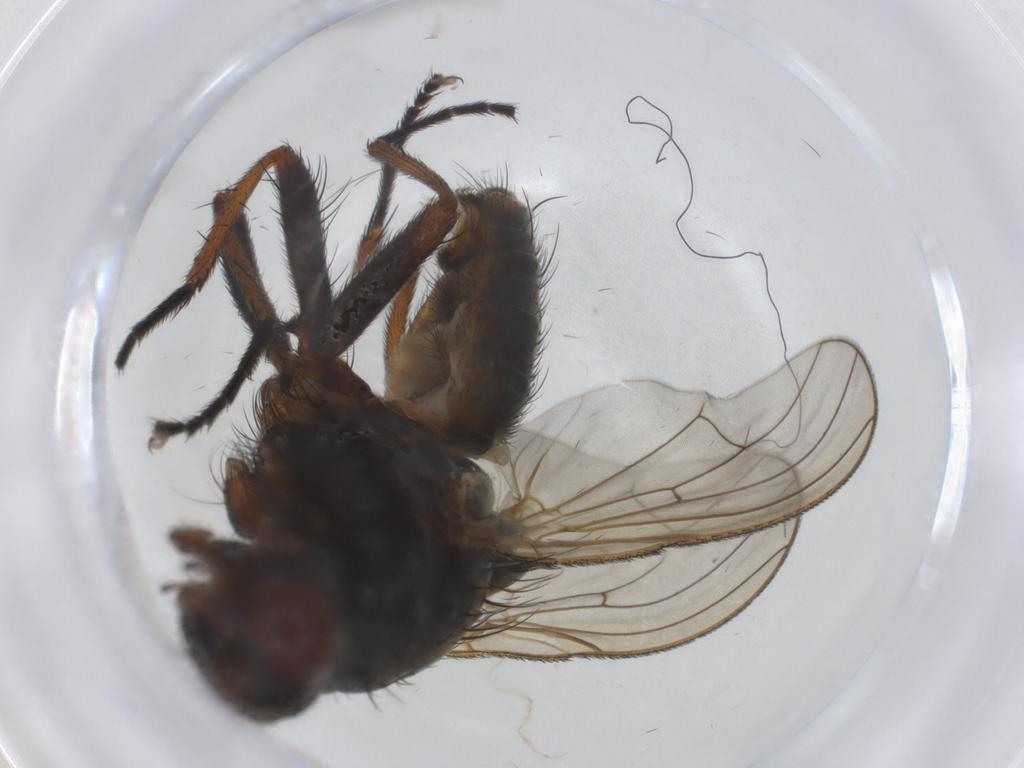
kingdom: Animalia
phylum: Arthropoda
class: Insecta
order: Diptera
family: Anthomyiidae
